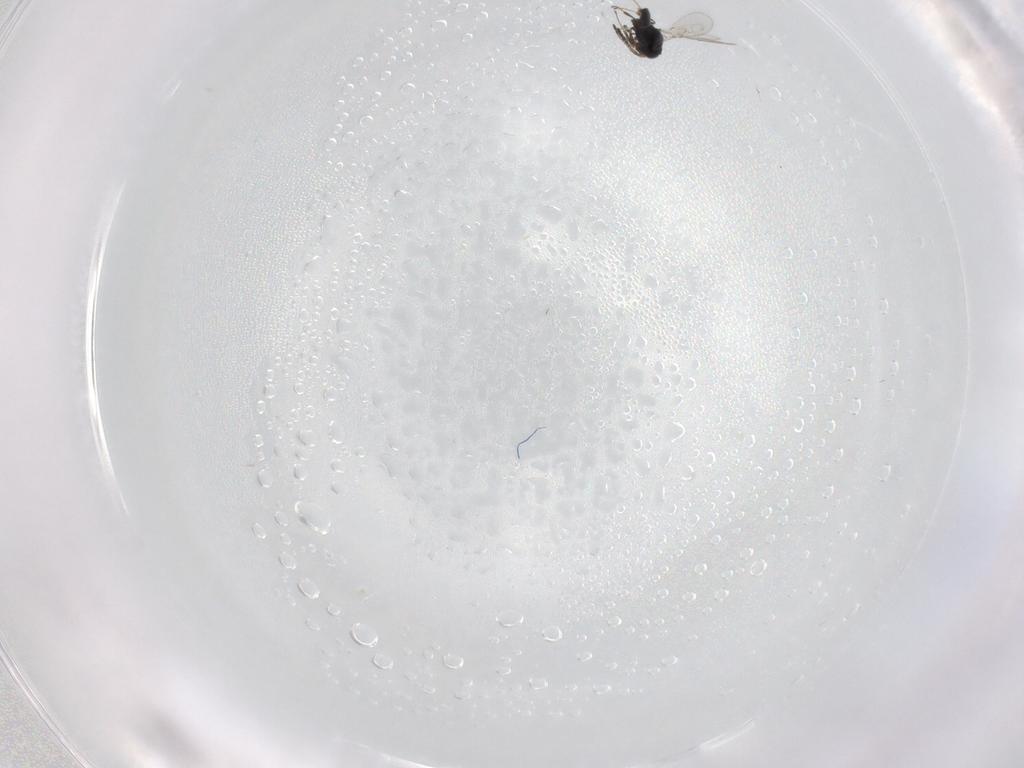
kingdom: Animalia
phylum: Arthropoda
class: Insecta
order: Hymenoptera
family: Scelionidae
